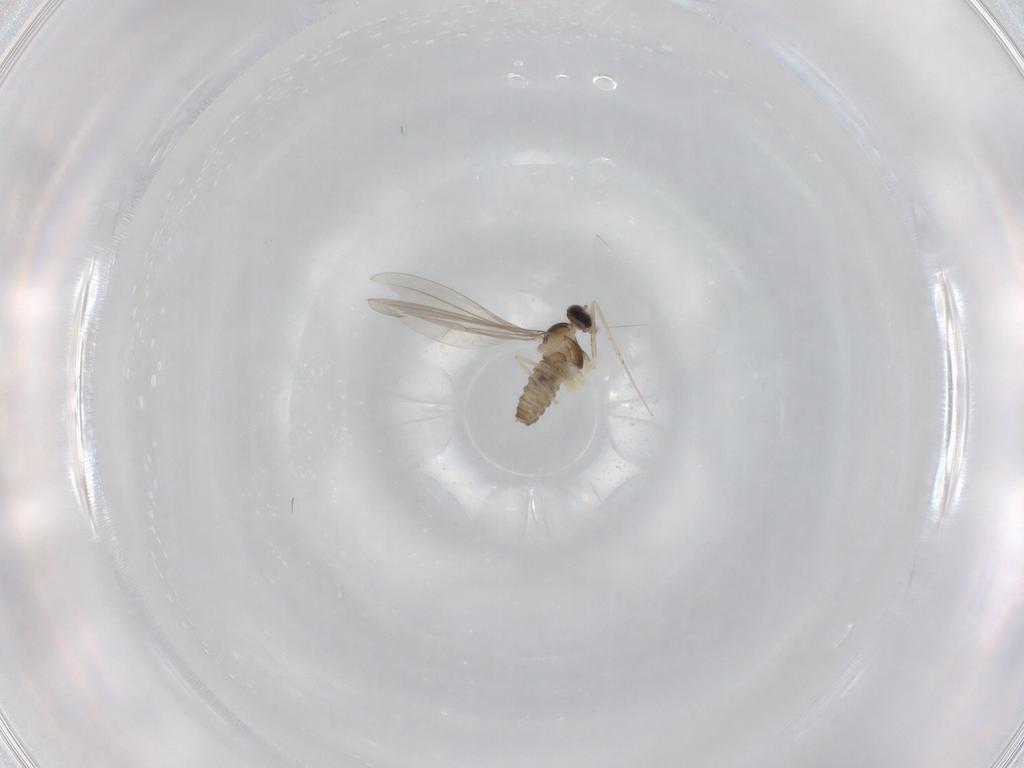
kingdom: Animalia
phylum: Arthropoda
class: Insecta
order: Diptera
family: Cecidomyiidae
